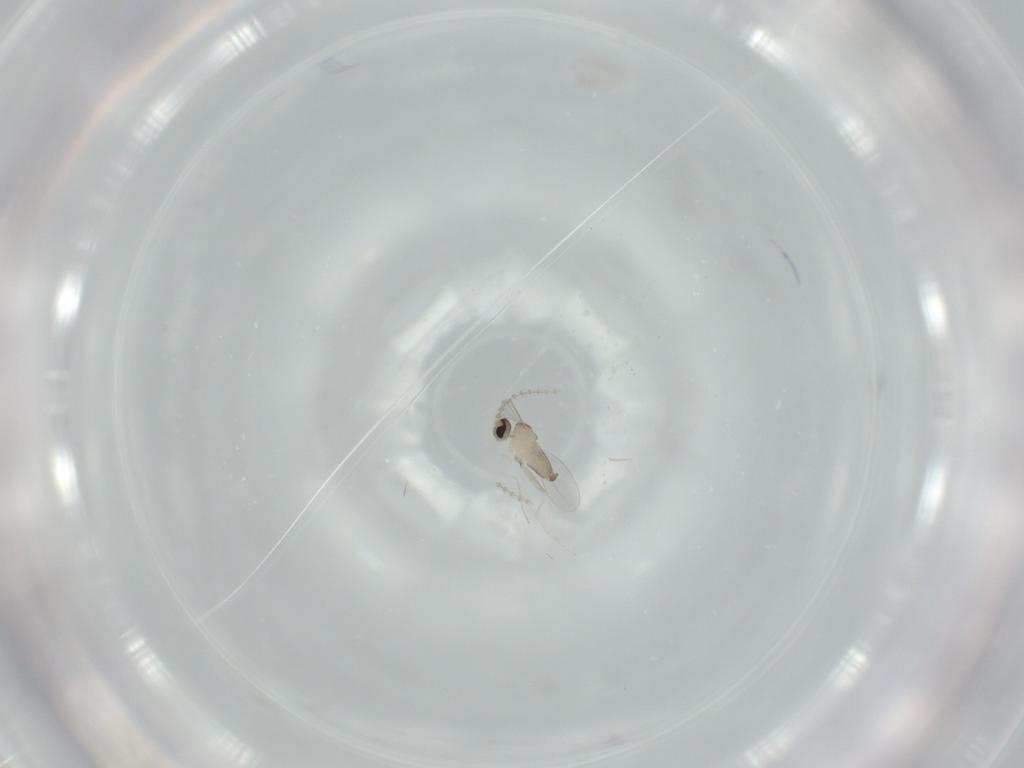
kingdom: Animalia
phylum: Arthropoda
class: Insecta
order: Diptera
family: Cecidomyiidae
